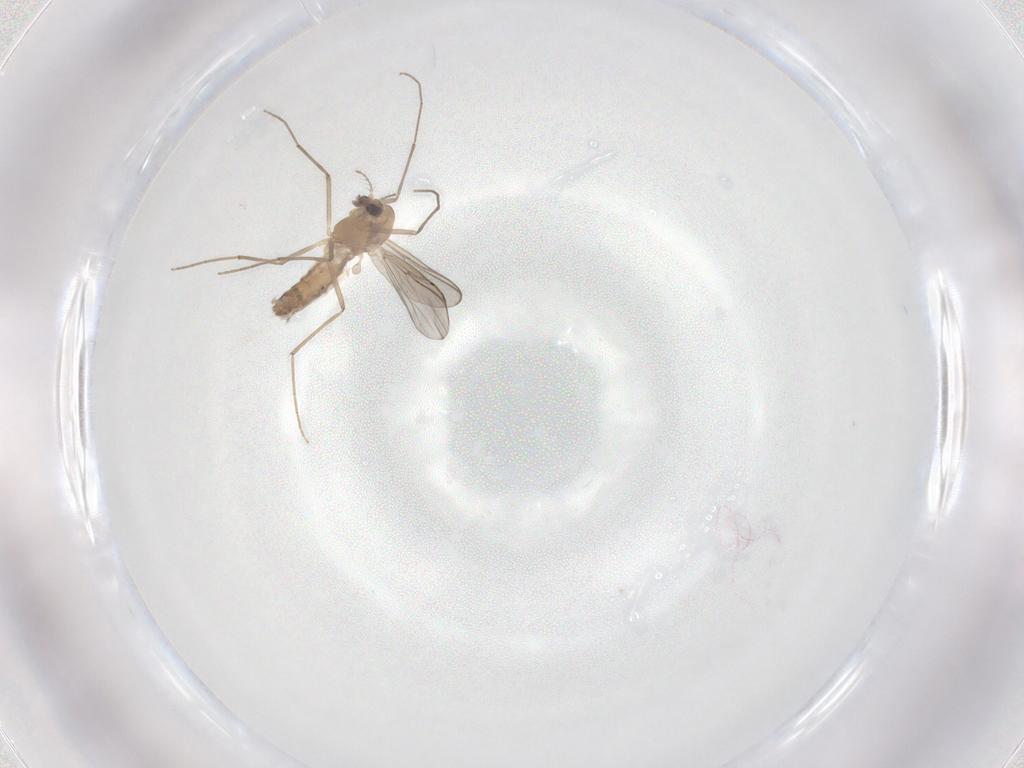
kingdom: Animalia
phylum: Arthropoda
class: Insecta
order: Diptera
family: Chironomidae
